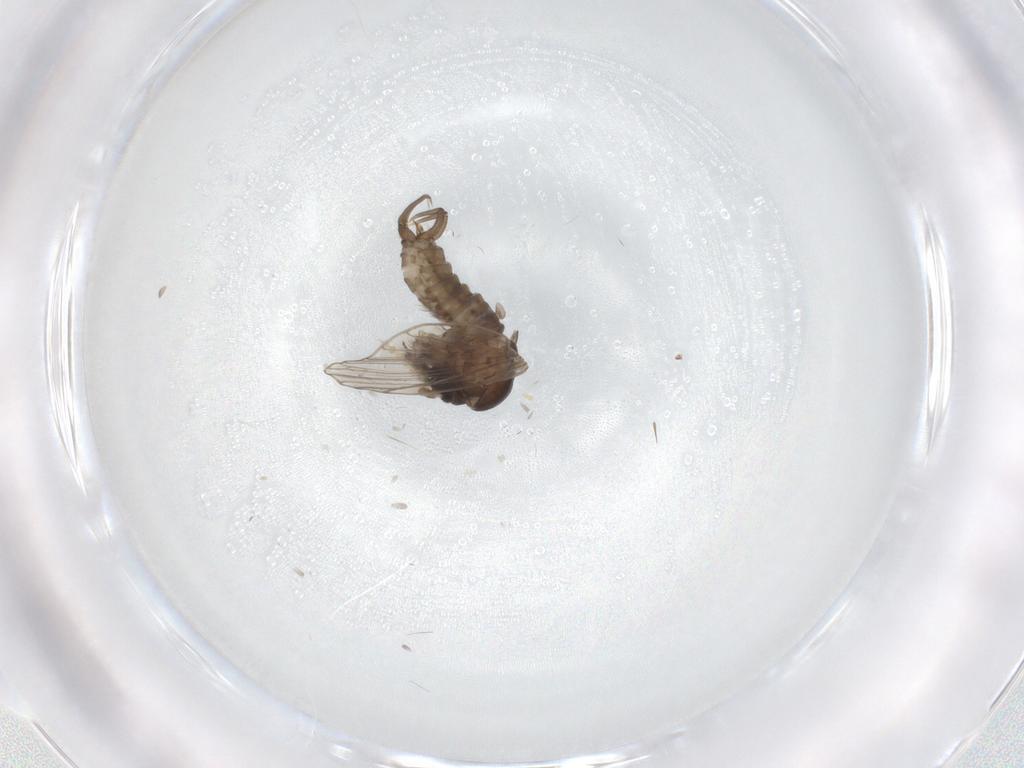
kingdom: Animalia
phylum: Arthropoda
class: Insecta
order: Diptera
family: Psychodidae
